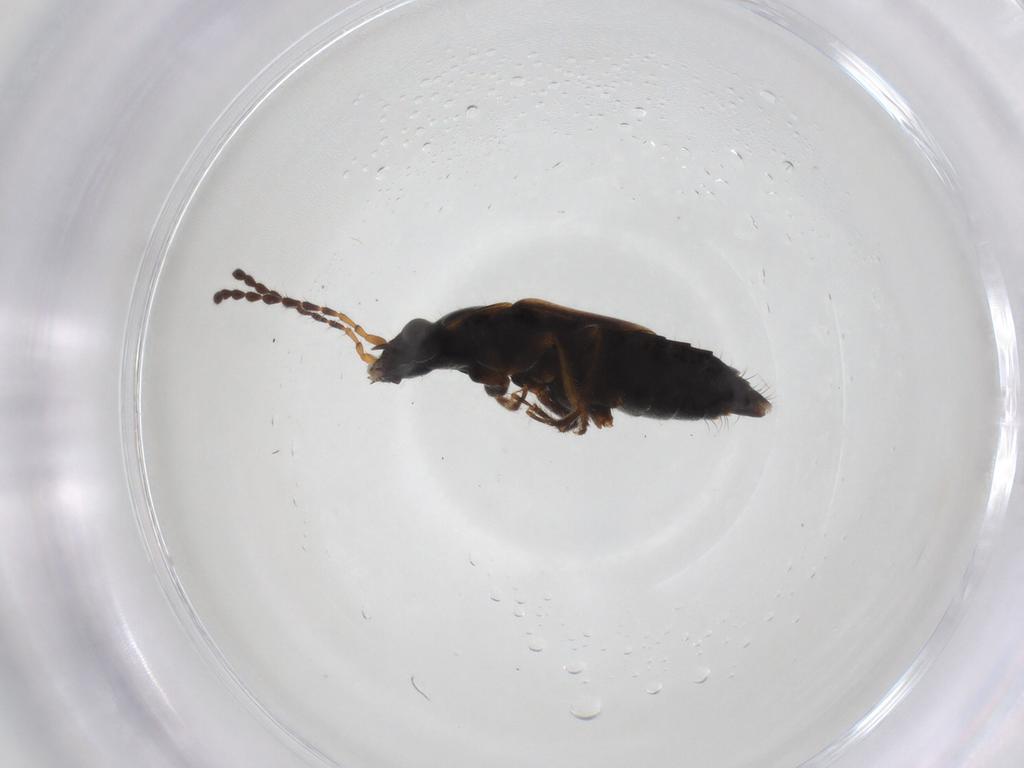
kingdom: Animalia
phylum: Arthropoda
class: Insecta
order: Coleoptera
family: Staphylinidae
